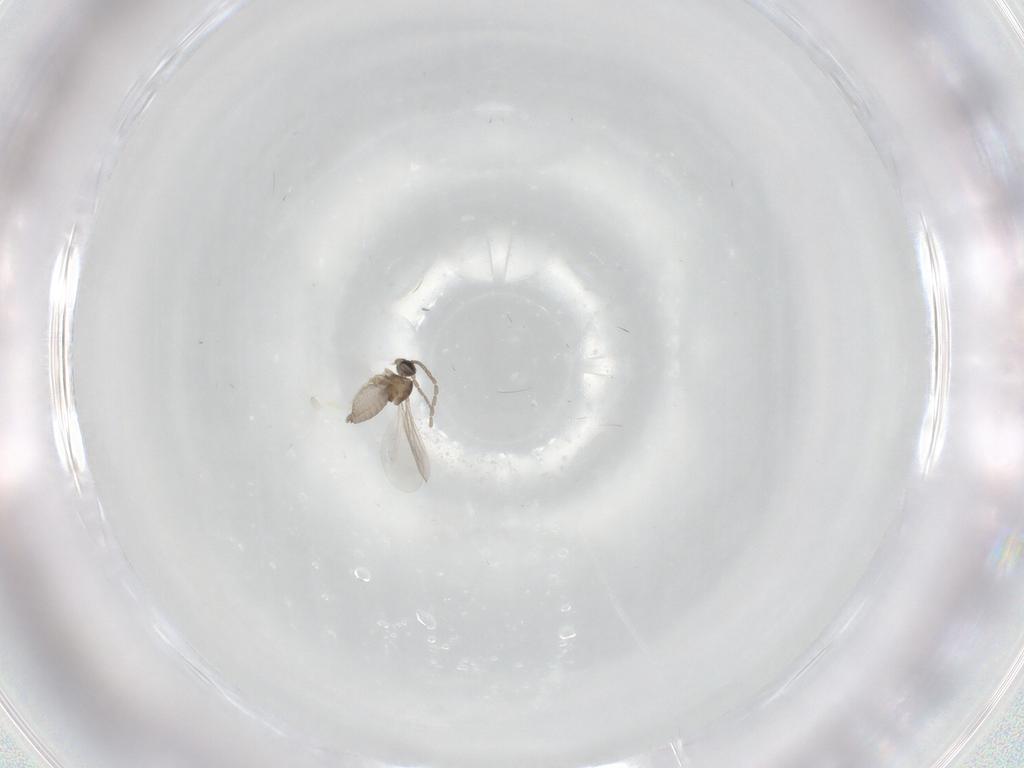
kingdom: Animalia
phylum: Arthropoda
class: Insecta
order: Diptera
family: Cecidomyiidae
